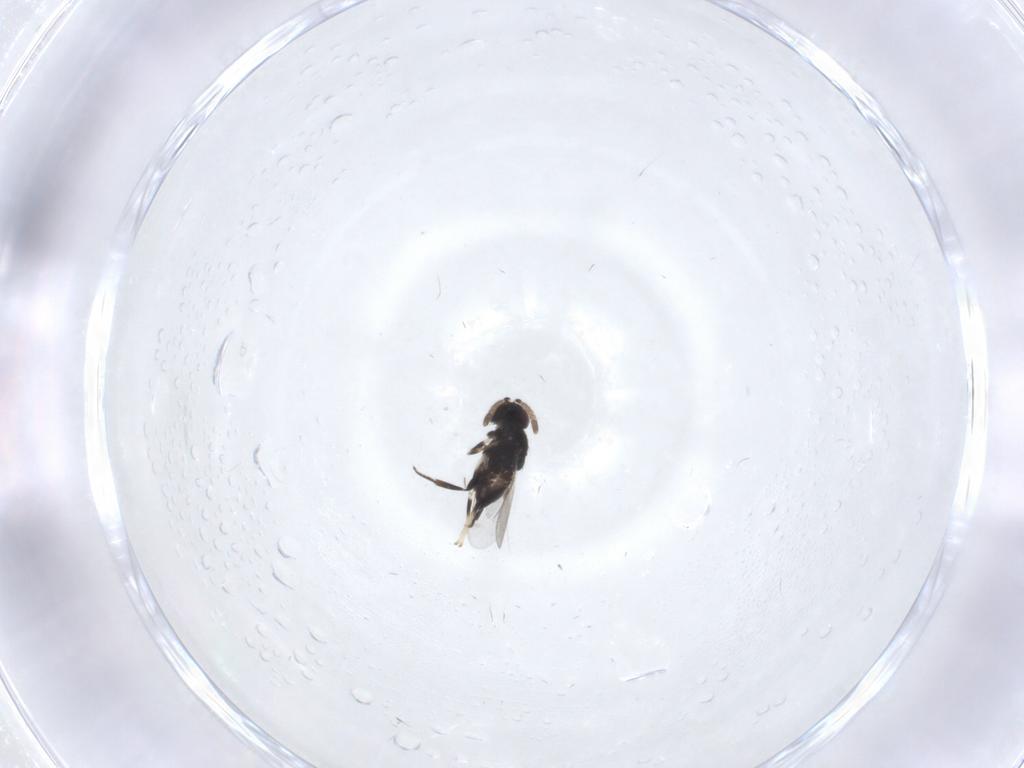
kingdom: Animalia
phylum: Arthropoda
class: Insecta
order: Hymenoptera
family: Encyrtidae
